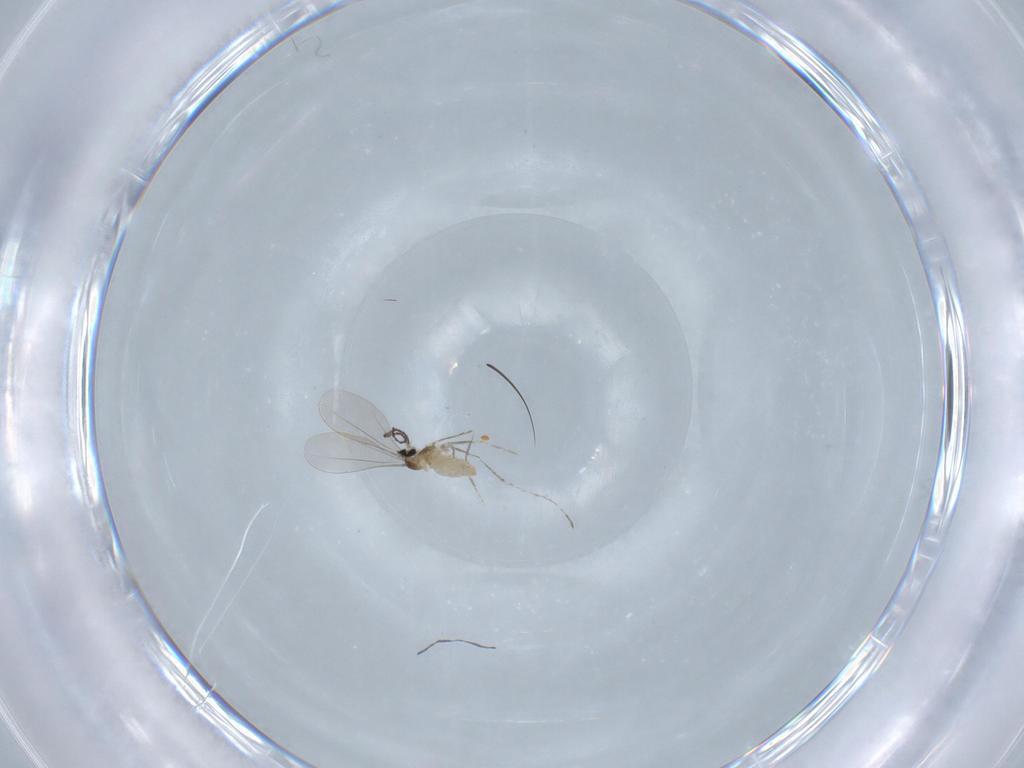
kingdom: Animalia
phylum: Arthropoda
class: Insecta
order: Diptera
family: Cecidomyiidae
